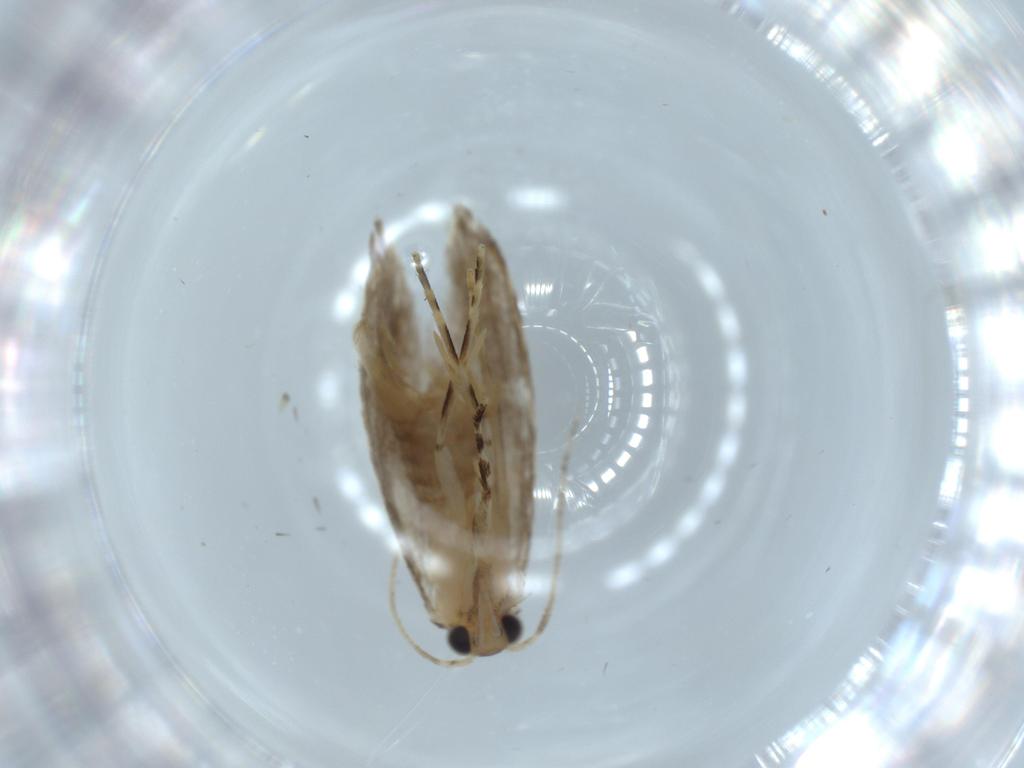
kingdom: Animalia
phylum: Arthropoda
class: Insecta
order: Lepidoptera
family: Tineidae
